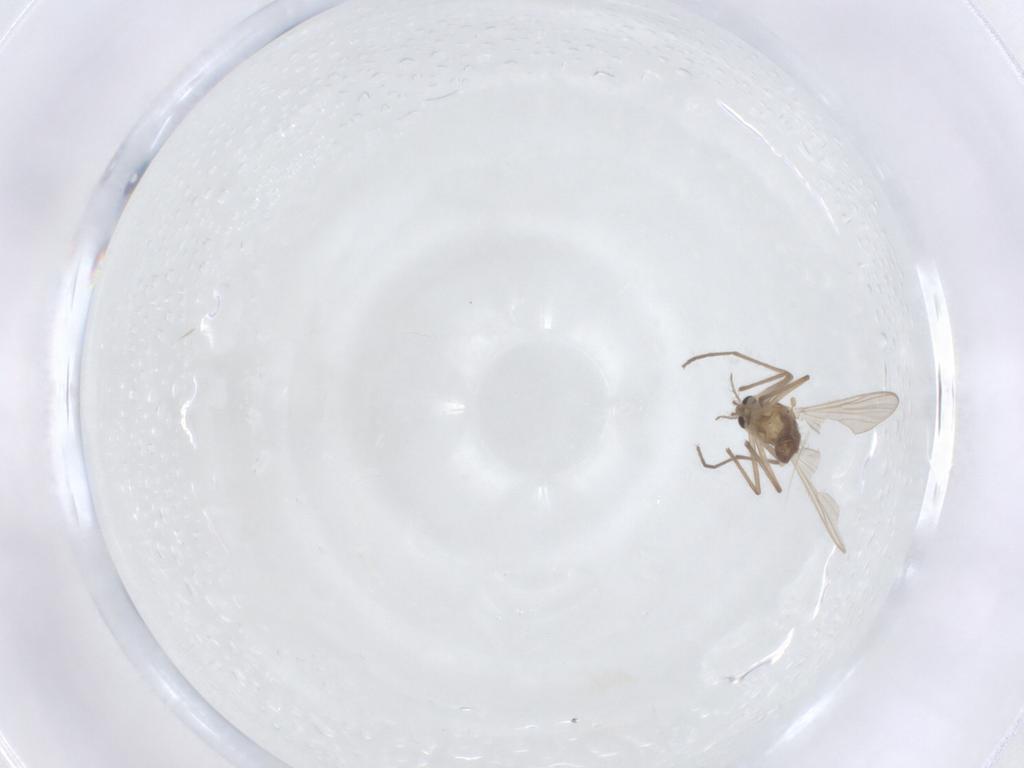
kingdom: Animalia
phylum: Arthropoda
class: Insecta
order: Diptera
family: Chironomidae
